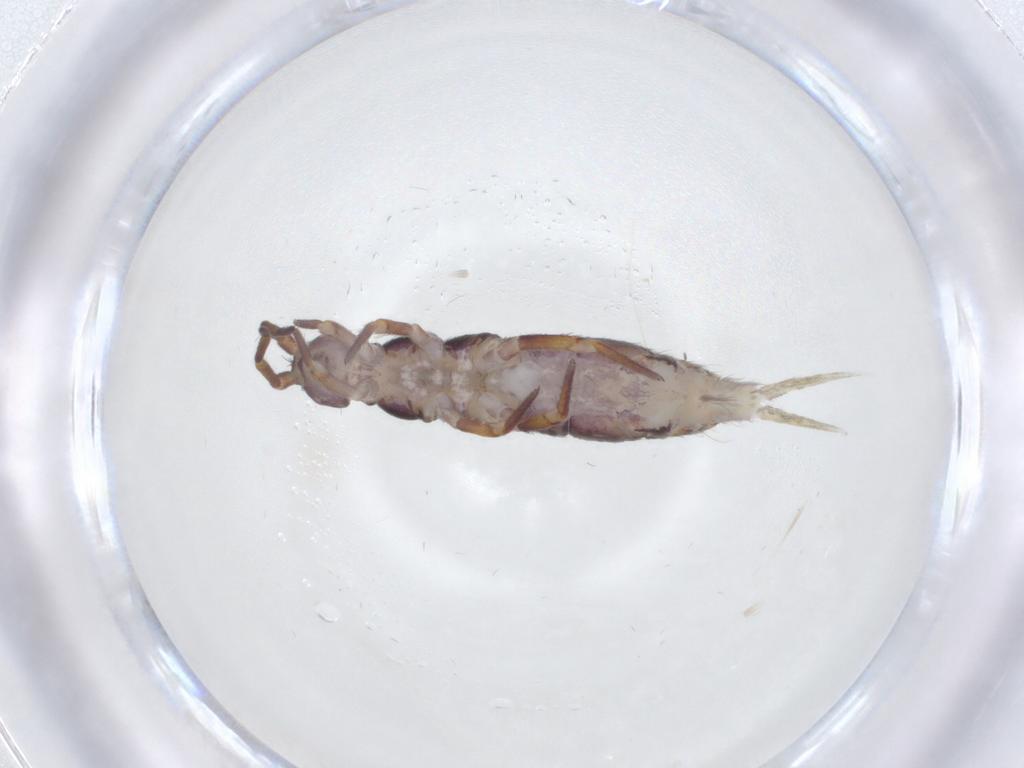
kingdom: Animalia
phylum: Arthropoda
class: Collembola
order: Entomobryomorpha
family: Isotomidae
